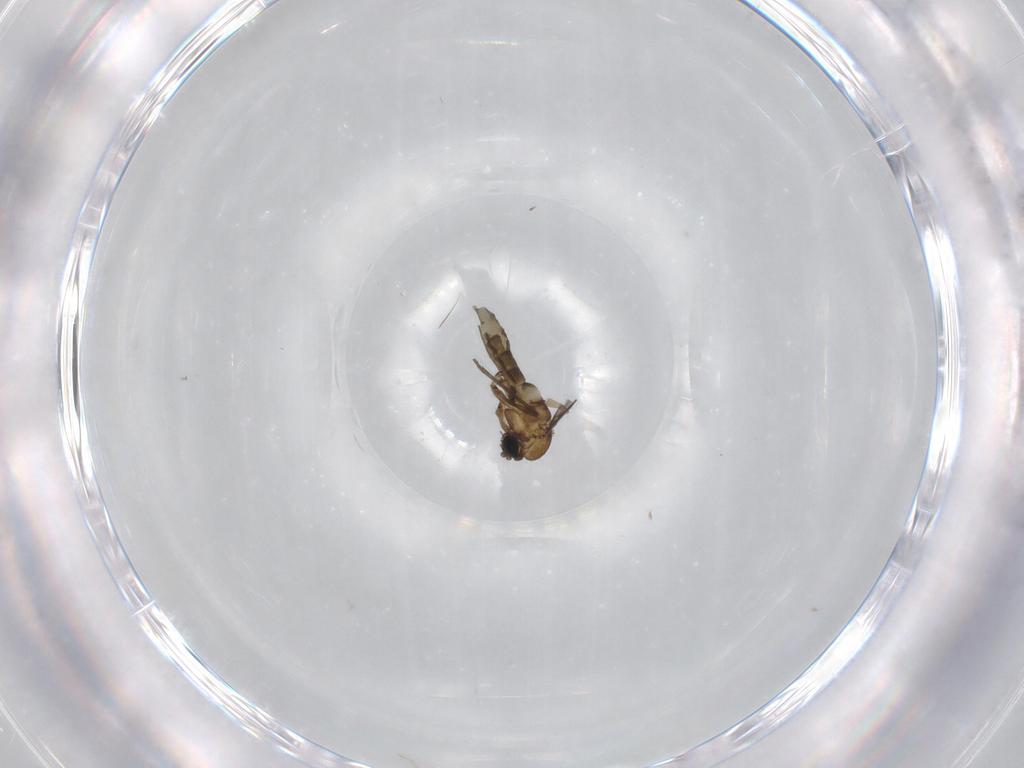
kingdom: Animalia
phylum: Arthropoda
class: Insecta
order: Diptera
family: Sciaridae
